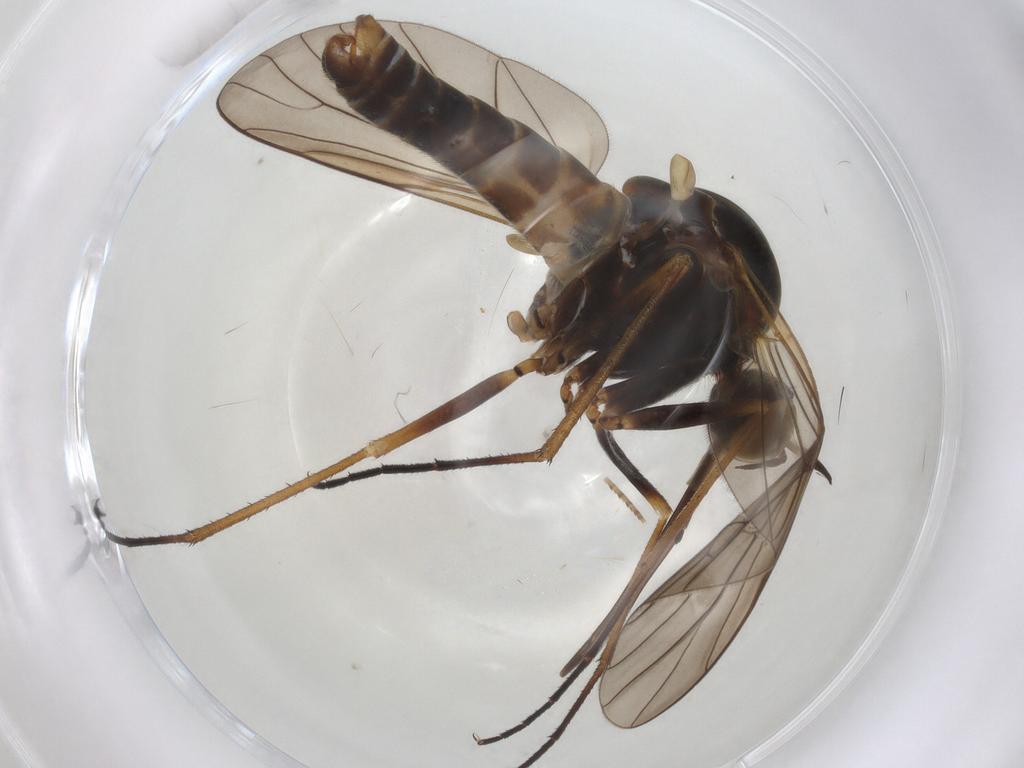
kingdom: Animalia
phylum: Arthropoda
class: Insecta
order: Diptera
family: Bombyliidae
